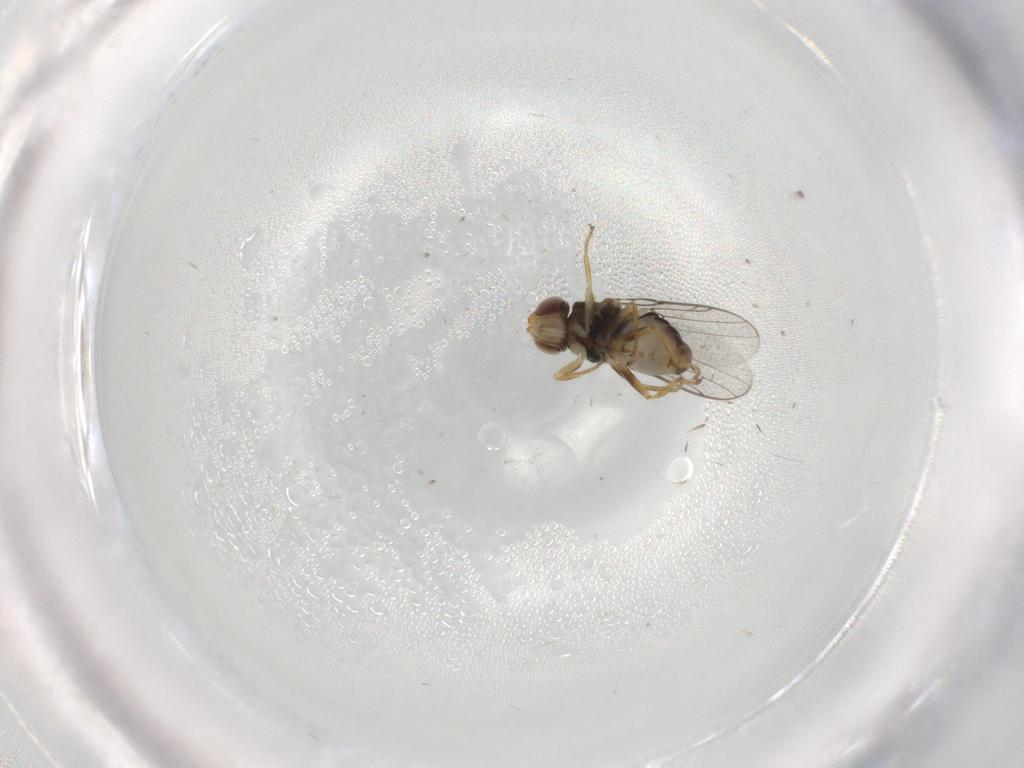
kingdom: Animalia
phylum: Arthropoda
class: Insecta
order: Diptera
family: Chloropidae
